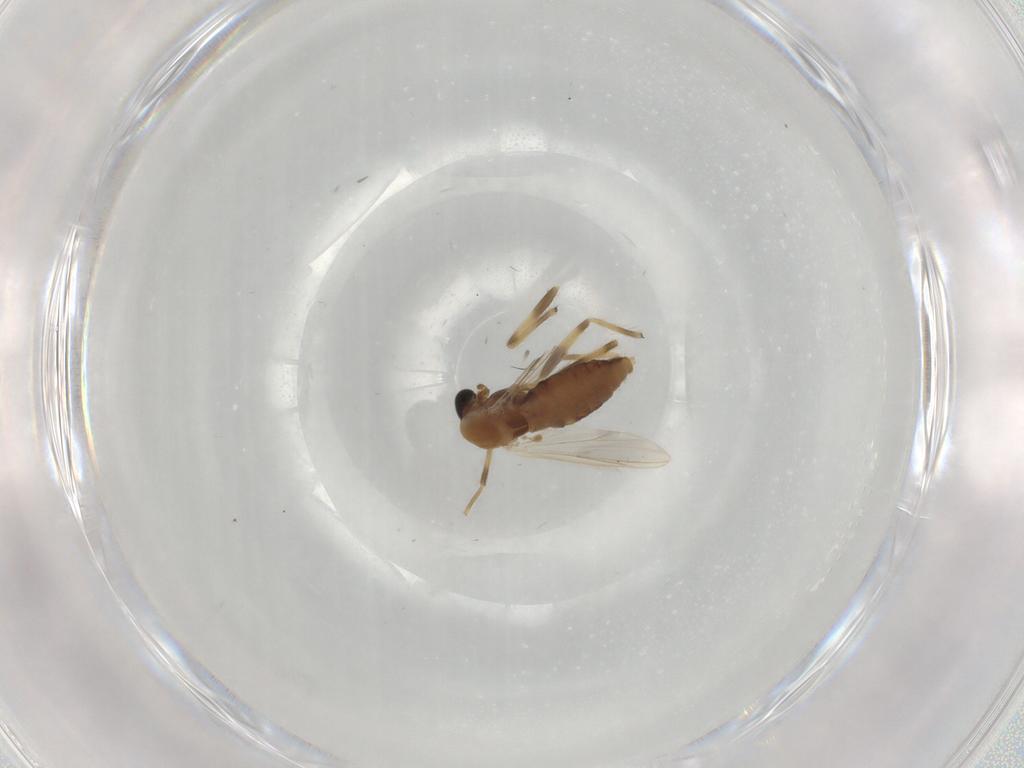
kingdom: Animalia
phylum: Arthropoda
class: Insecta
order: Diptera
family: Chironomidae
